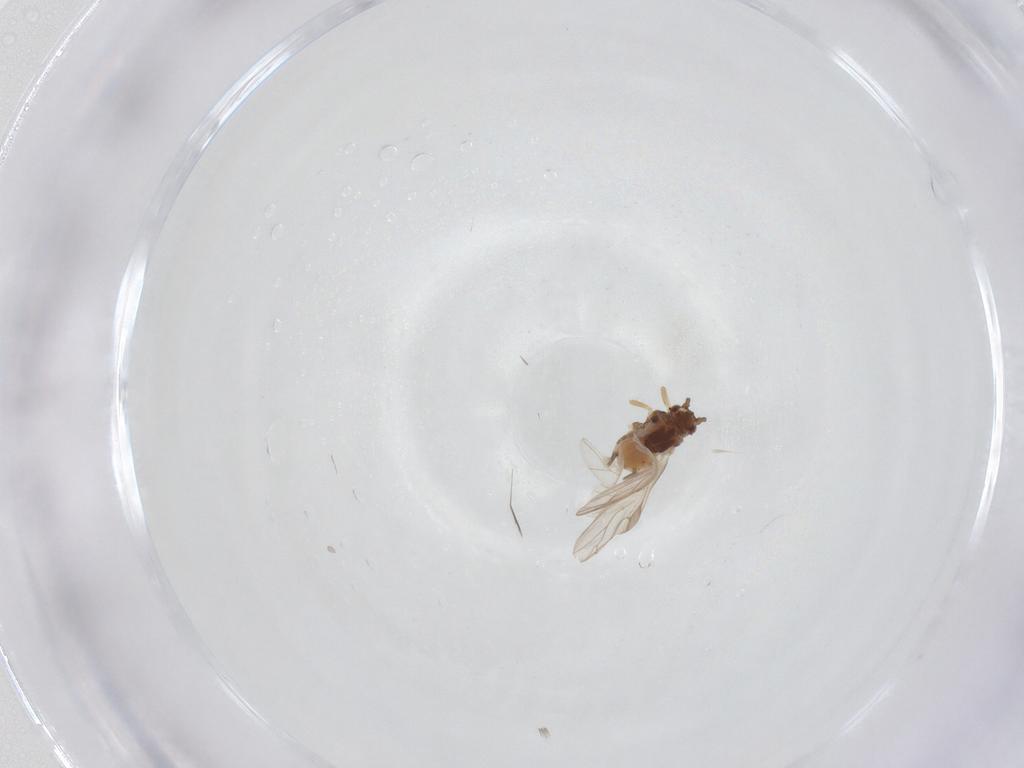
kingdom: Animalia
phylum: Arthropoda
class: Insecta
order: Hemiptera
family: Aphididae
